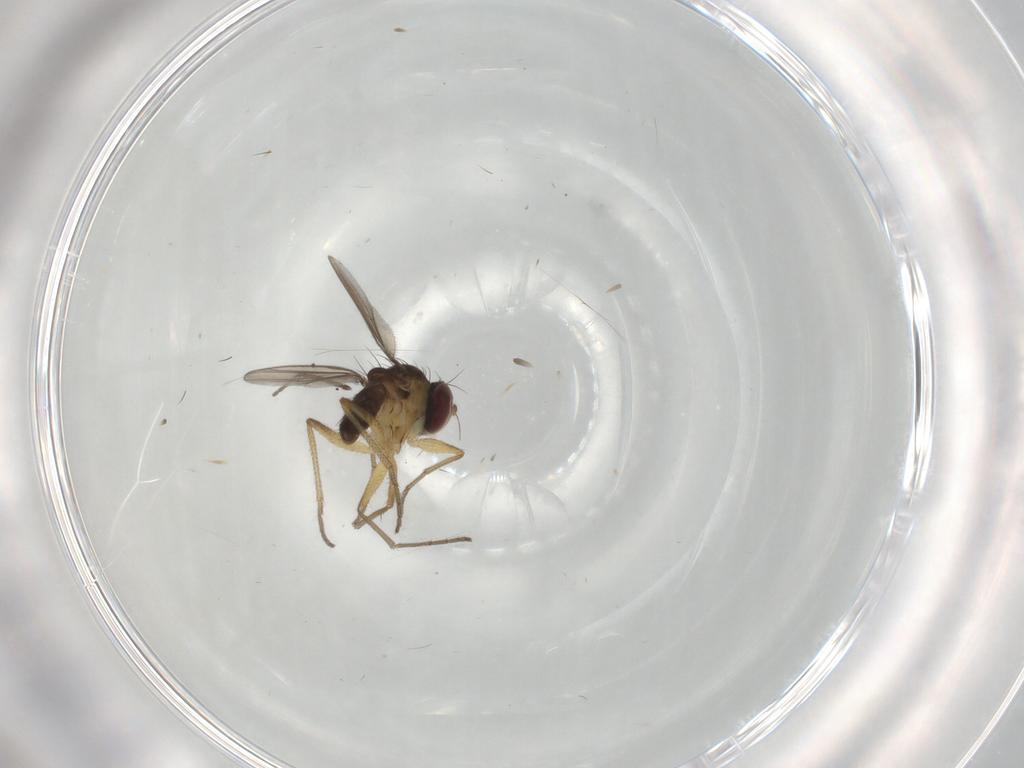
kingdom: Animalia
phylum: Arthropoda
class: Insecta
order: Diptera
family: Dolichopodidae
